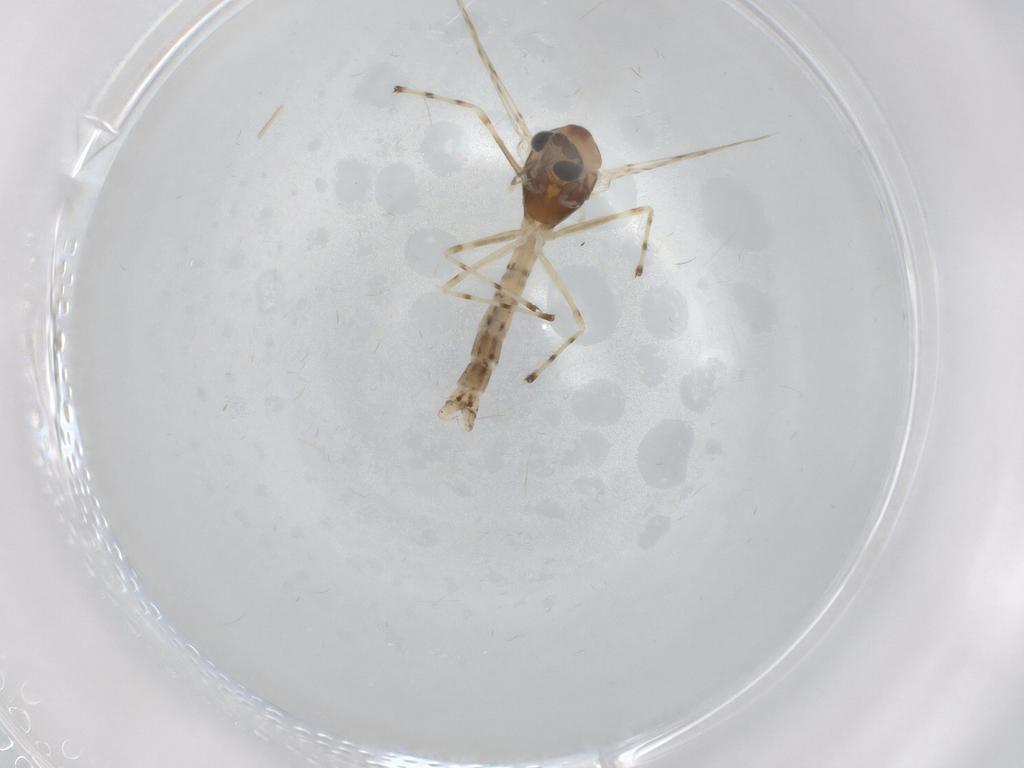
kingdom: Animalia
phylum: Arthropoda
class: Insecta
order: Diptera
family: Chironomidae
